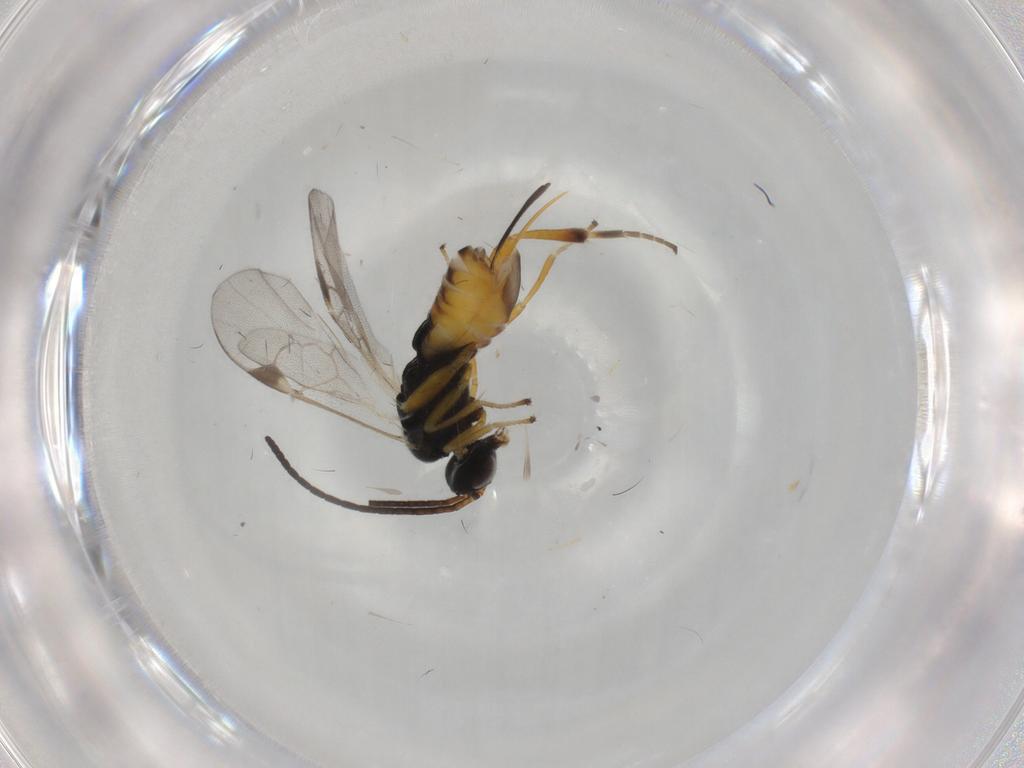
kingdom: Animalia
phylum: Arthropoda
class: Insecta
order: Hymenoptera
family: Braconidae
